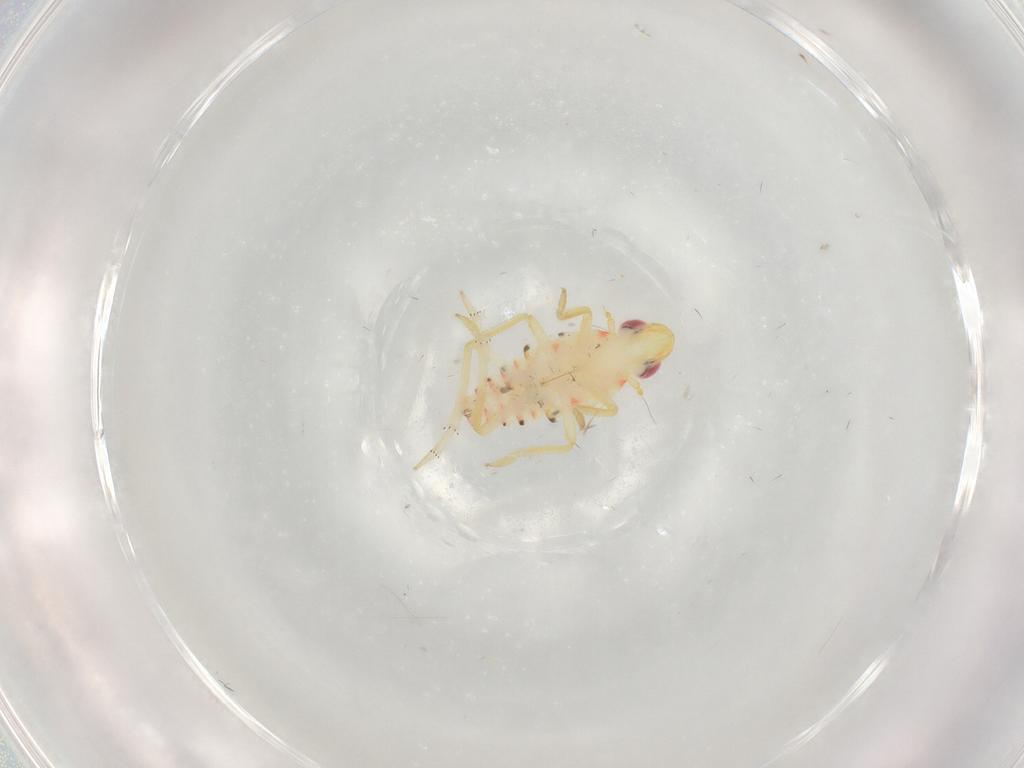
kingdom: Animalia
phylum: Arthropoda
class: Insecta
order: Hemiptera
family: Tropiduchidae
